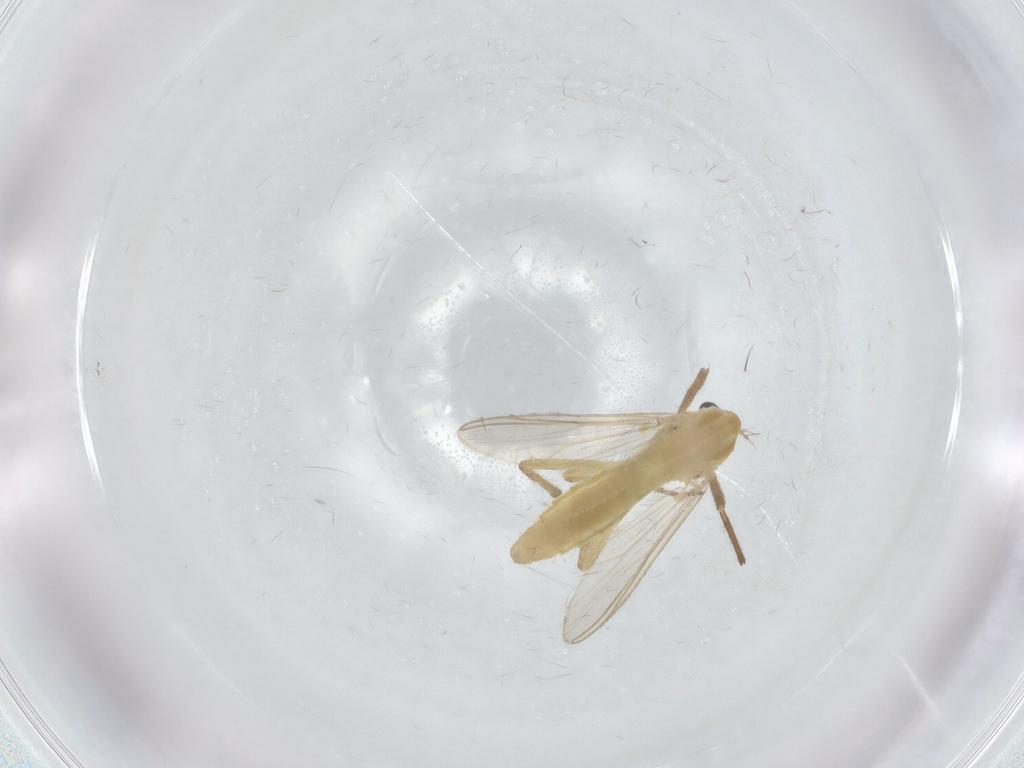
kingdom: Animalia
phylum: Arthropoda
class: Insecta
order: Diptera
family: Chironomidae
